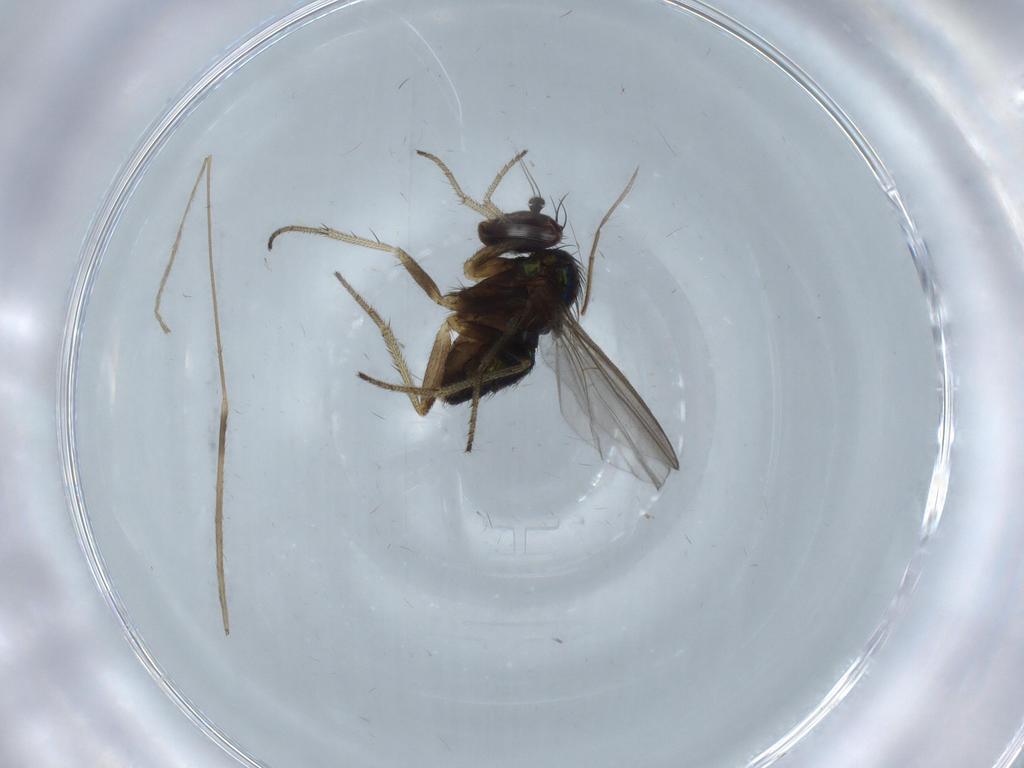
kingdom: Animalia
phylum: Arthropoda
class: Insecta
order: Diptera
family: Limoniidae
